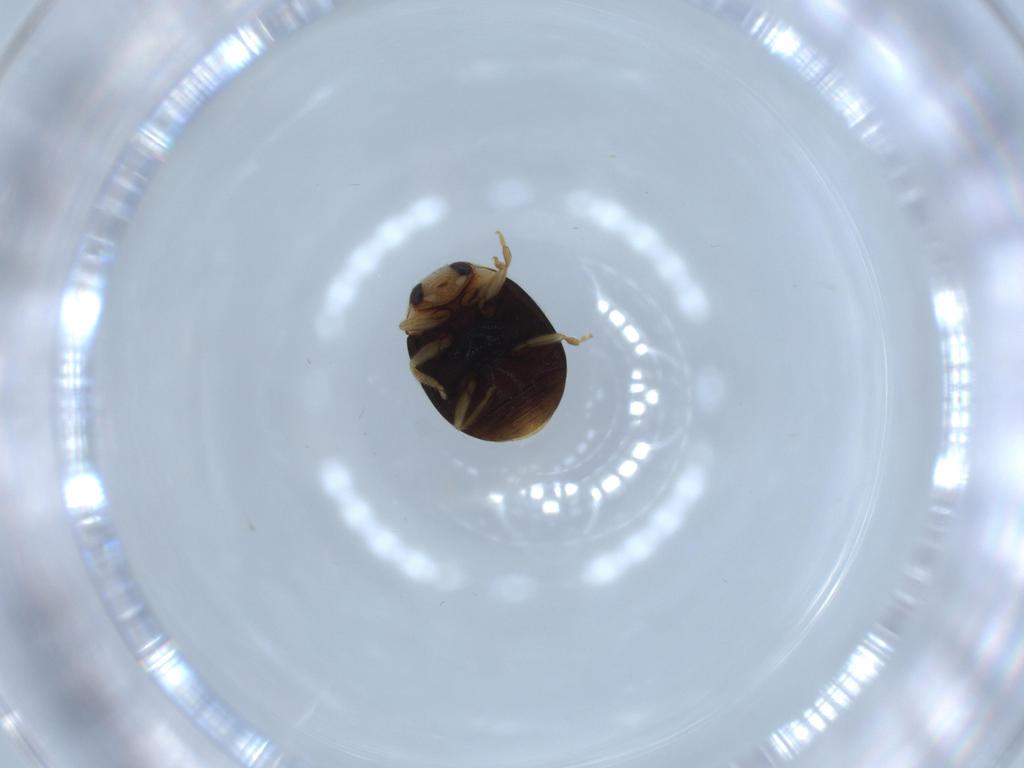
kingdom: Animalia
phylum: Arthropoda
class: Insecta
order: Coleoptera
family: Coccinellidae
